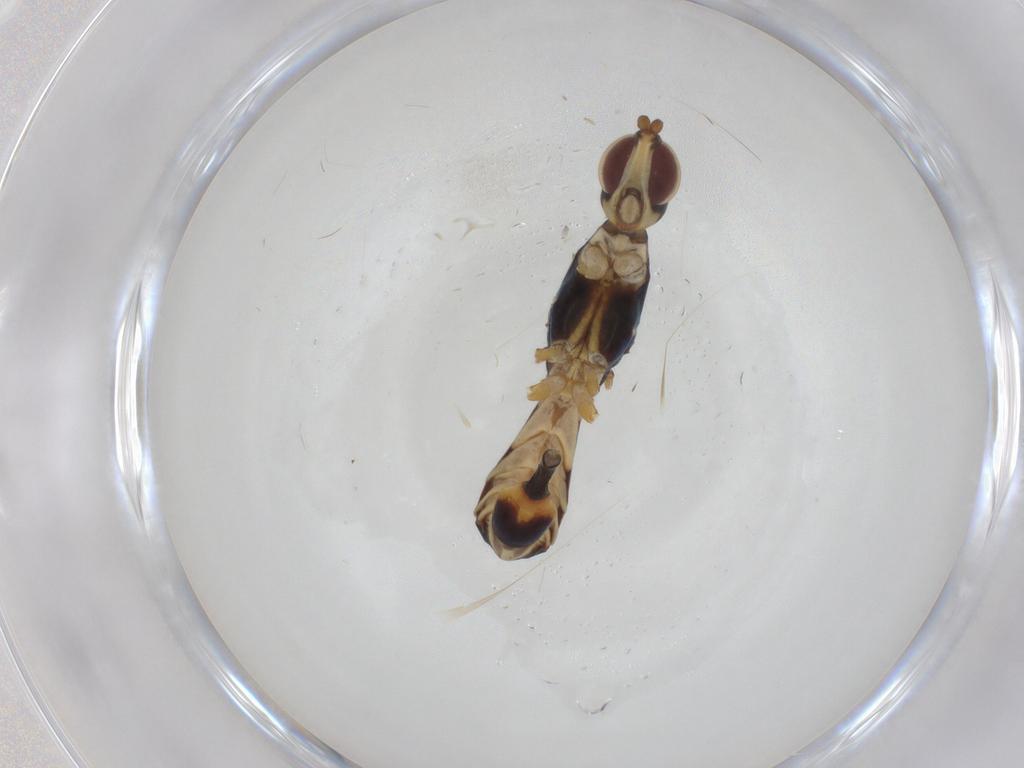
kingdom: Animalia
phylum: Arthropoda
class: Insecta
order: Diptera
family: Micropezidae
